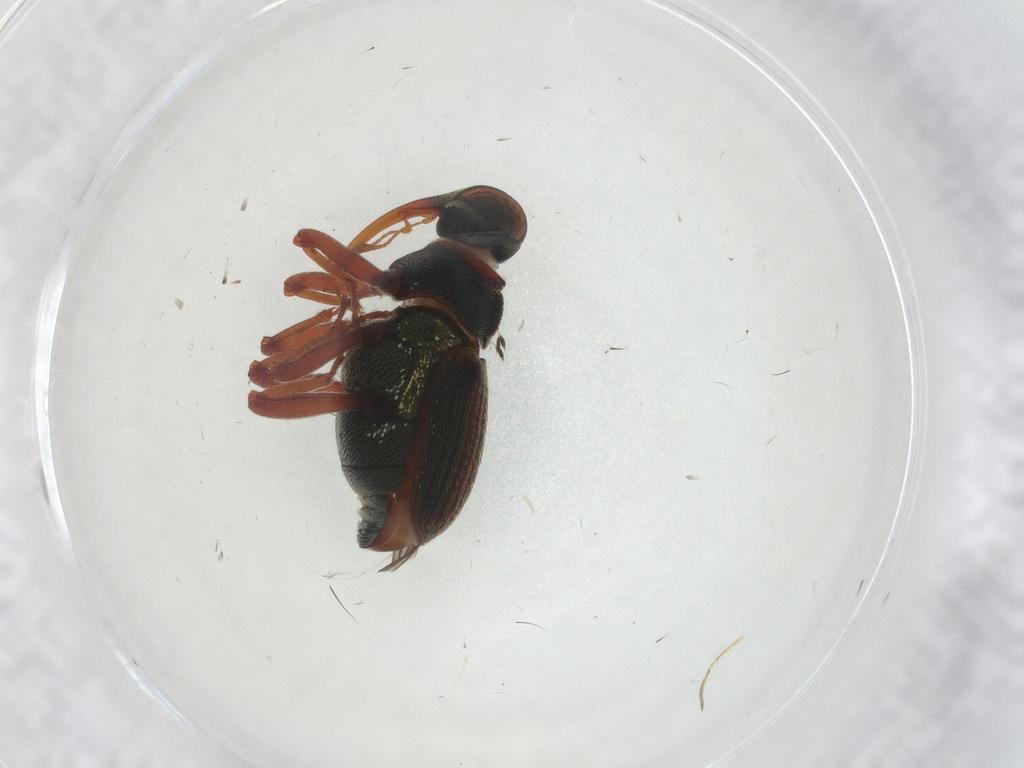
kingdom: Animalia
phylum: Arthropoda
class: Insecta
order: Coleoptera
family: Chrysomelidae
